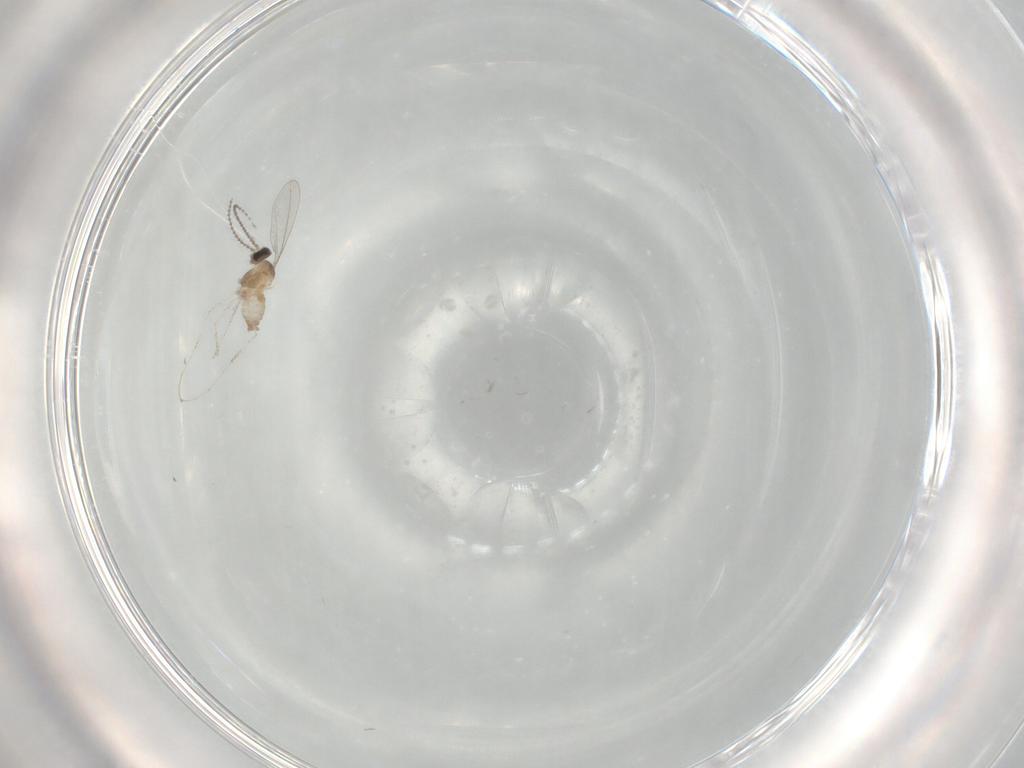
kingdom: Animalia
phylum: Arthropoda
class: Insecta
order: Diptera
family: Cecidomyiidae
